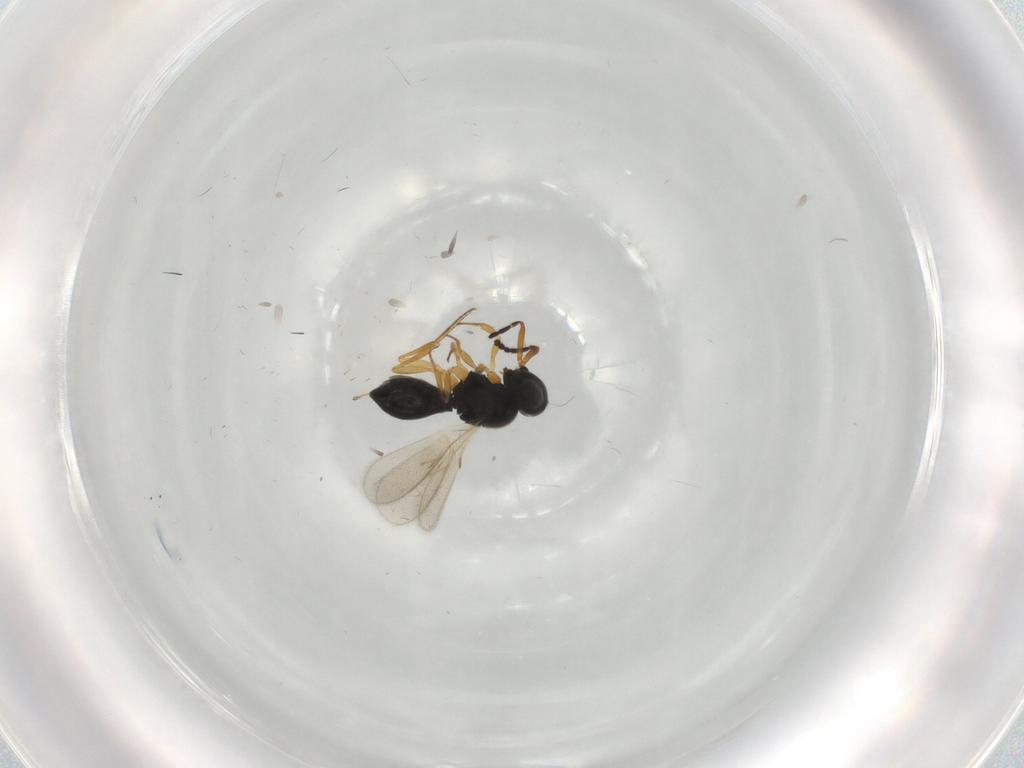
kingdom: Animalia
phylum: Arthropoda
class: Insecta
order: Hymenoptera
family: Scelionidae
